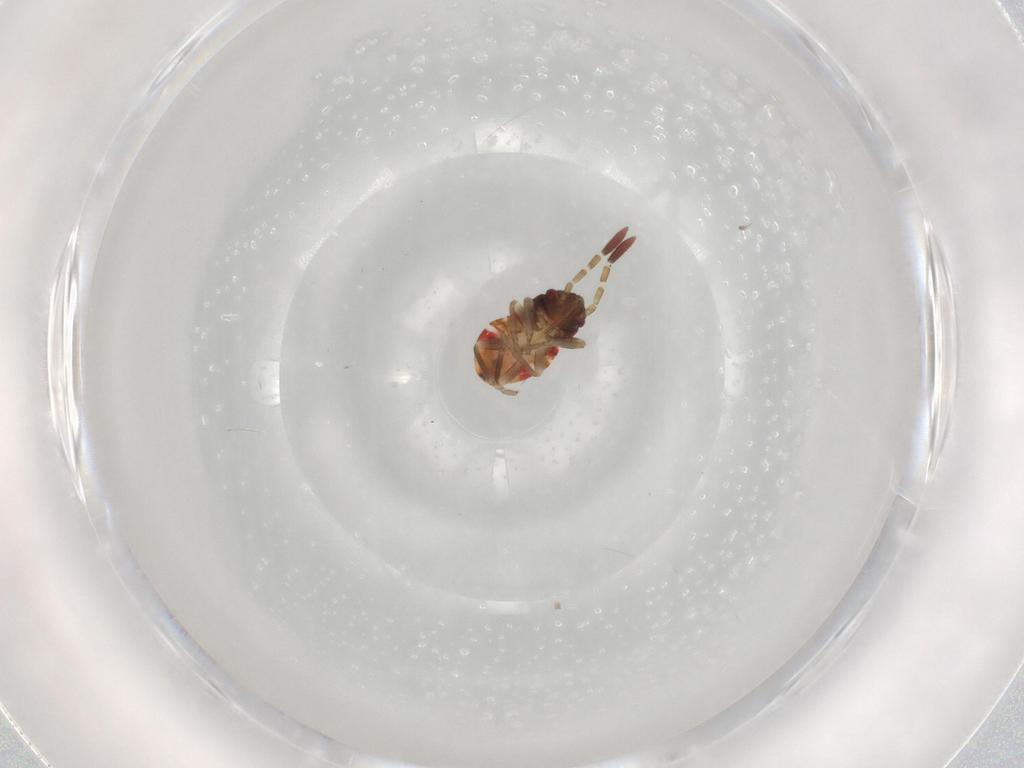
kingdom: Animalia
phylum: Arthropoda
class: Insecta
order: Hemiptera
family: Rhyparochromidae
